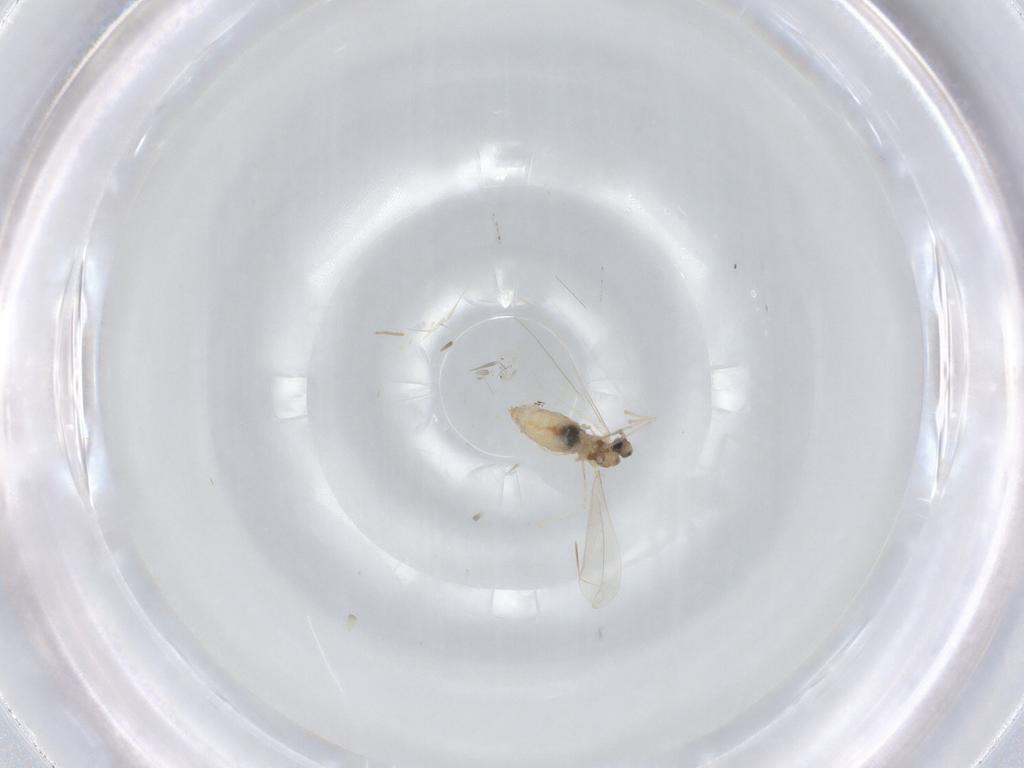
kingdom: Animalia
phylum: Arthropoda
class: Insecta
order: Diptera
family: Cecidomyiidae
